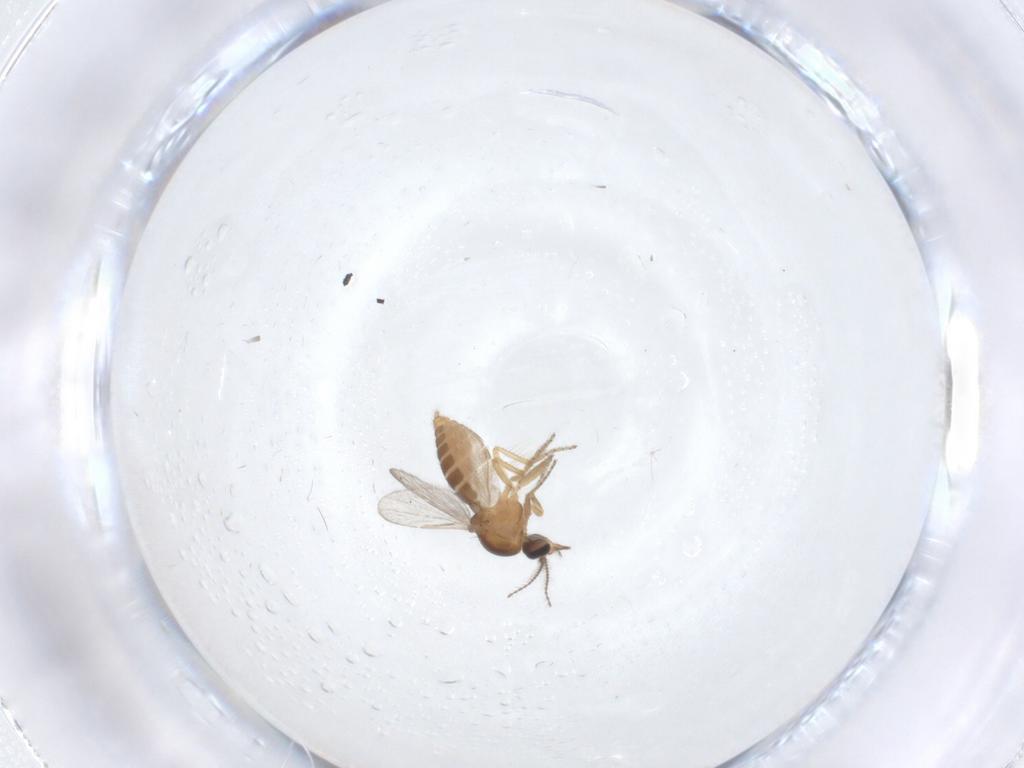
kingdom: Animalia
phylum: Arthropoda
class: Insecta
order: Diptera
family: Ceratopogonidae
